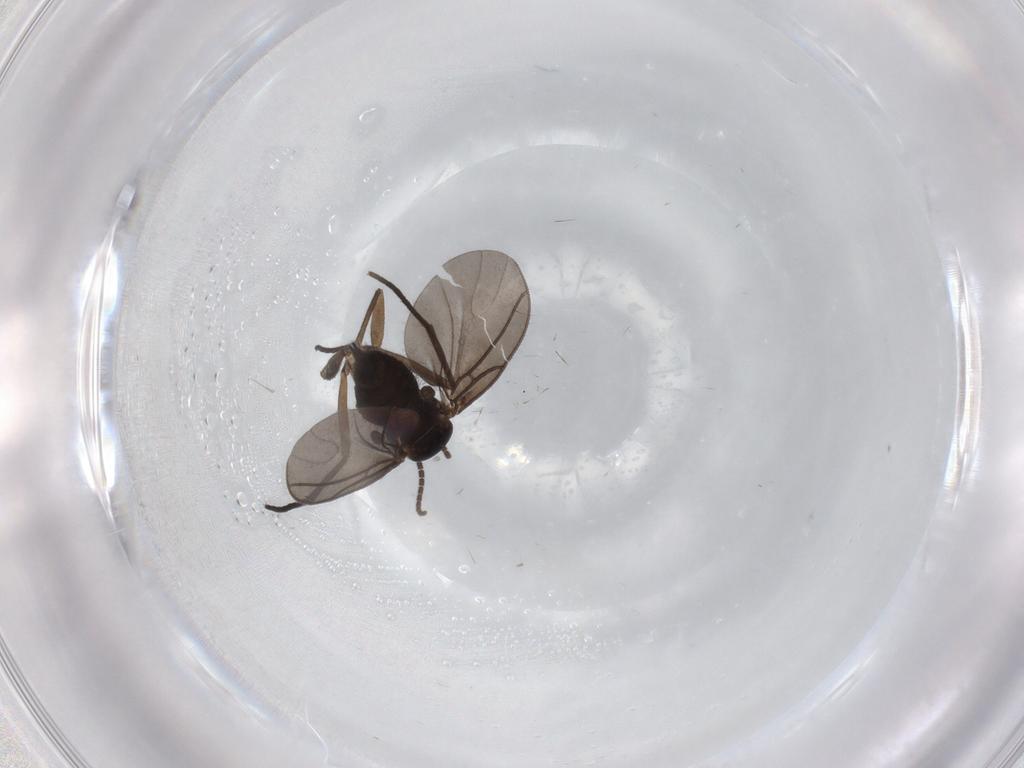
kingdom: Animalia
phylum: Arthropoda
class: Insecta
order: Diptera
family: Sciaridae
